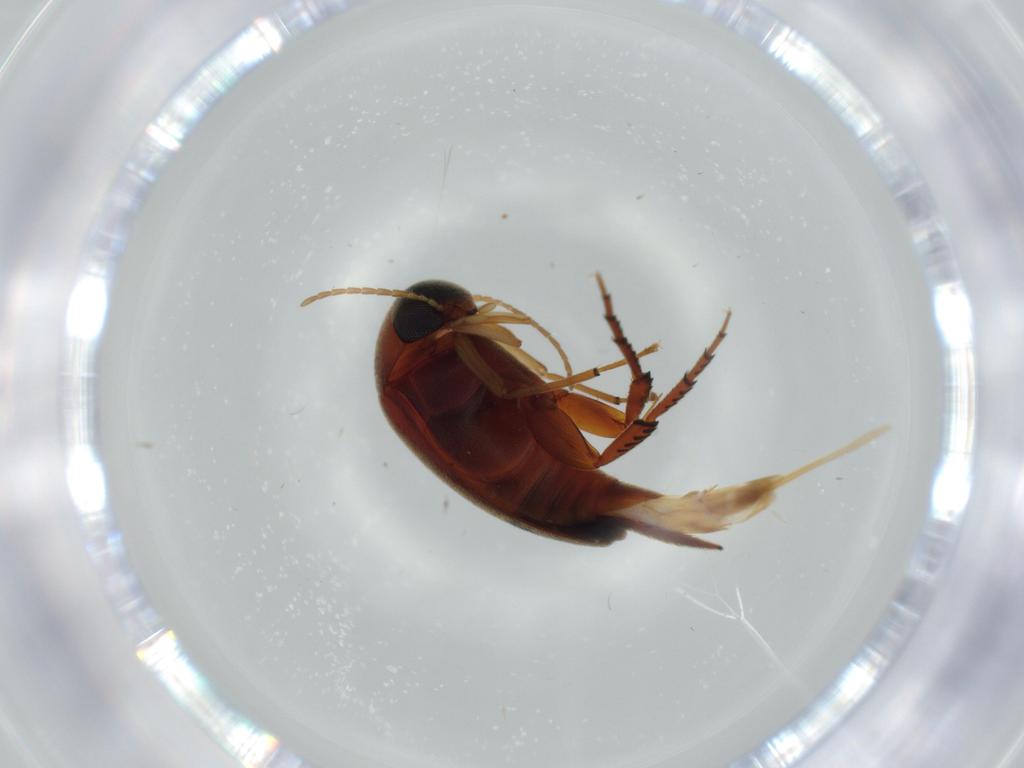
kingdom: Animalia
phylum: Arthropoda
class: Insecta
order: Coleoptera
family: Mordellidae
